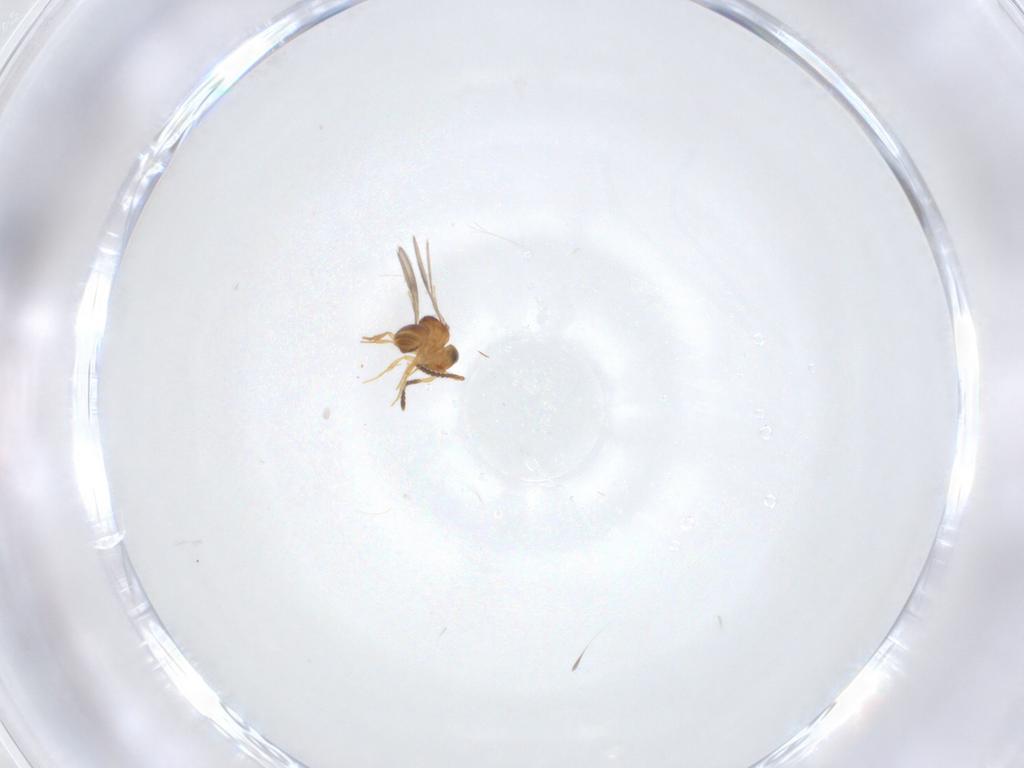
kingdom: Animalia
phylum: Arthropoda
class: Insecta
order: Hymenoptera
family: Scelionidae
